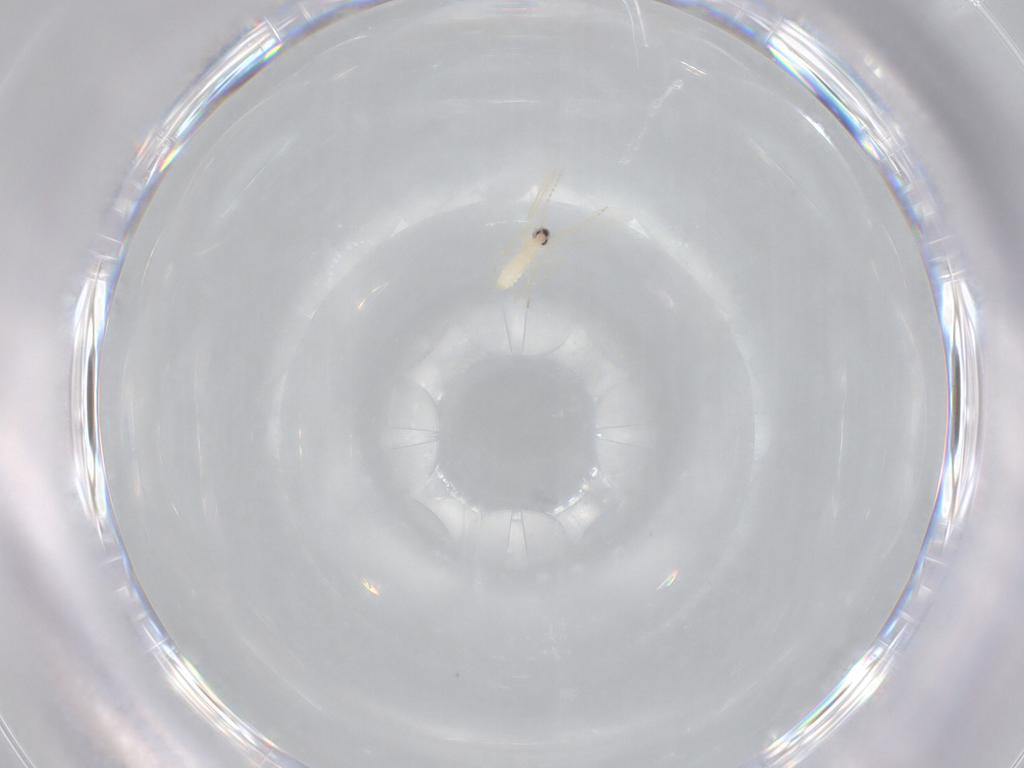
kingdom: Animalia
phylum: Arthropoda
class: Insecta
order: Diptera
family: Cecidomyiidae
